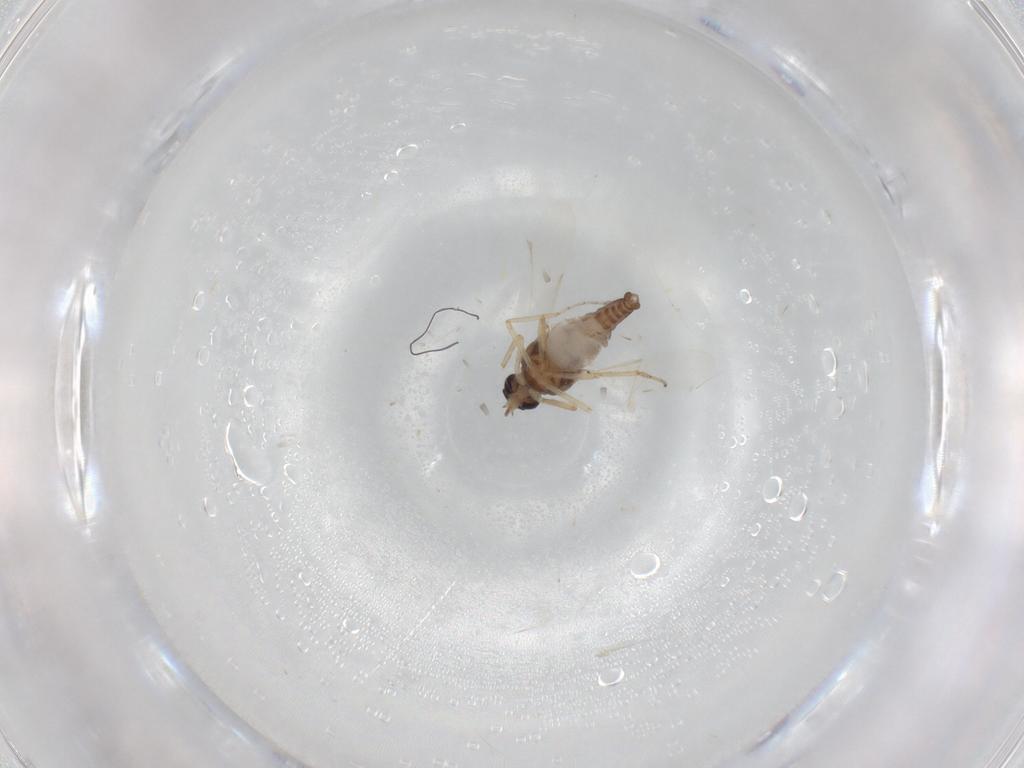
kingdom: Animalia
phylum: Arthropoda
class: Insecta
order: Diptera
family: Ceratopogonidae
